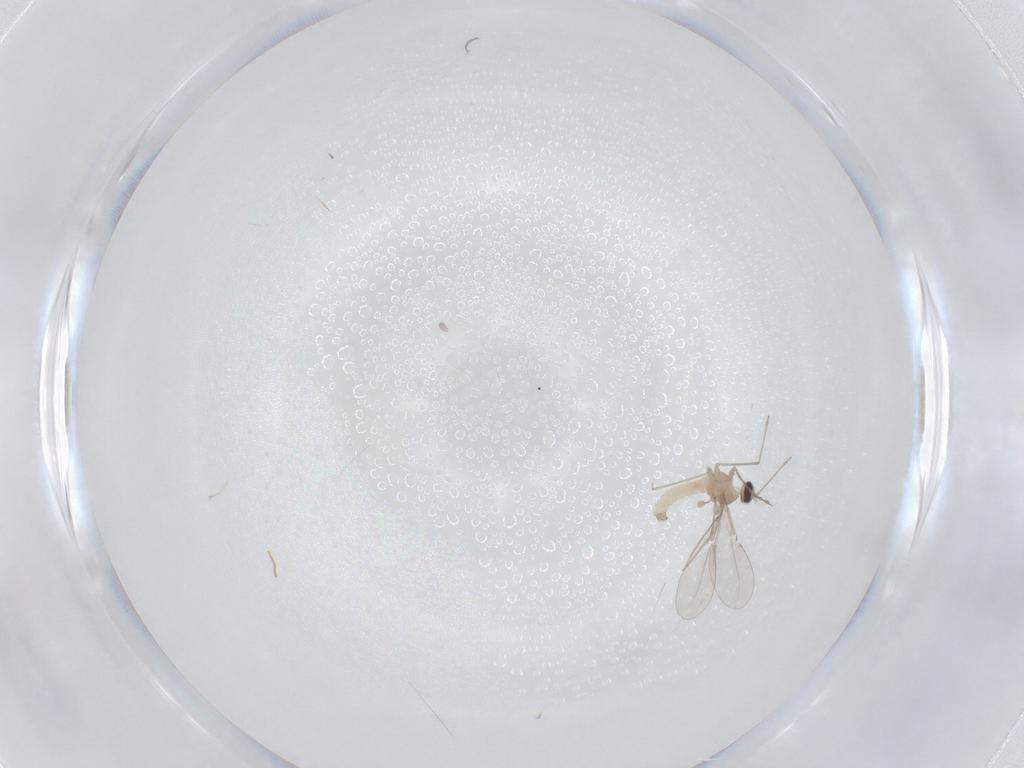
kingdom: Animalia
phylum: Arthropoda
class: Insecta
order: Diptera
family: Cecidomyiidae
